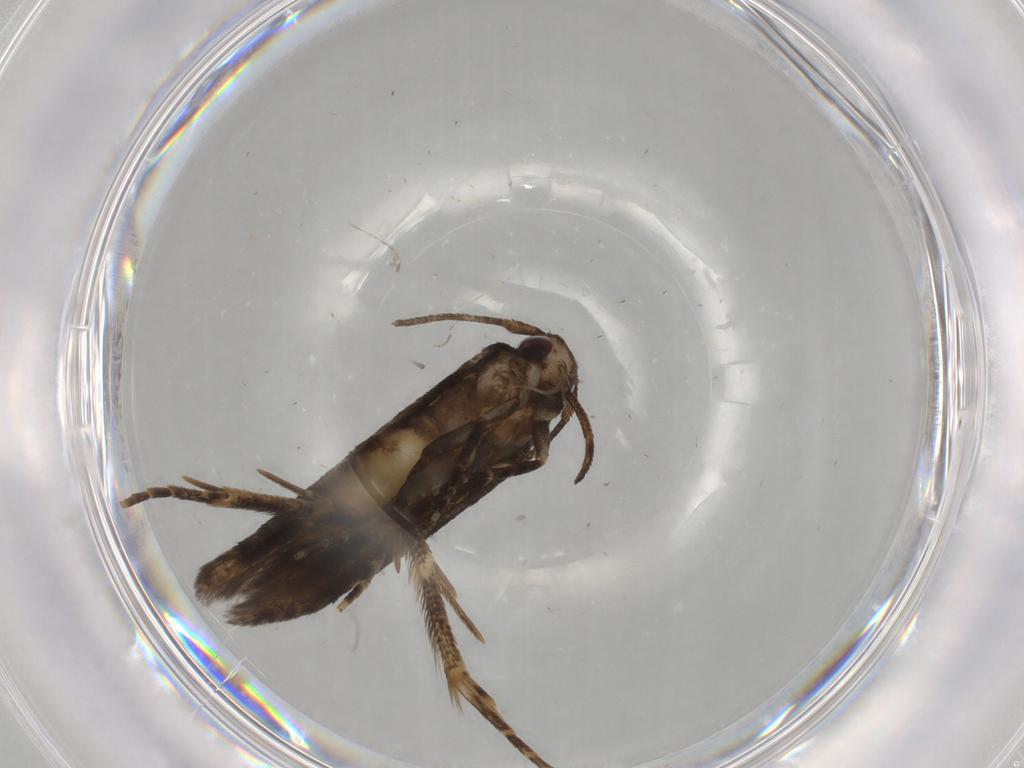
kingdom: Animalia
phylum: Arthropoda
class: Insecta
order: Lepidoptera
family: Cosmopterigidae
